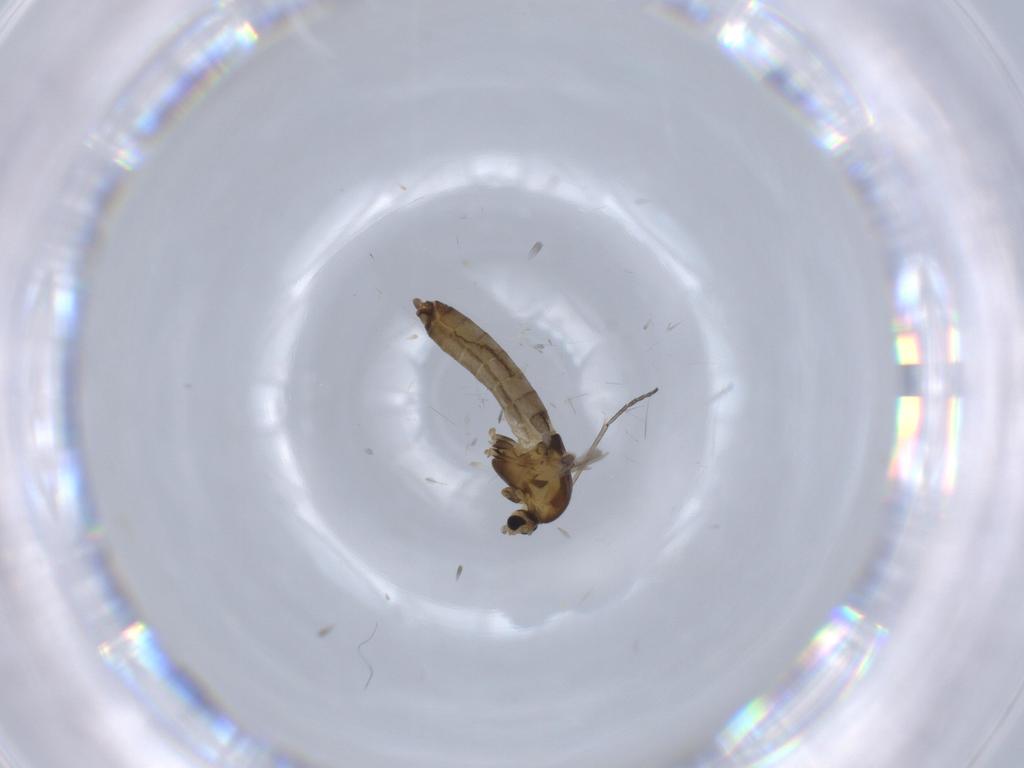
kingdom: Animalia
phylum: Arthropoda
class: Insecta
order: Diptera
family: Chironomidae
